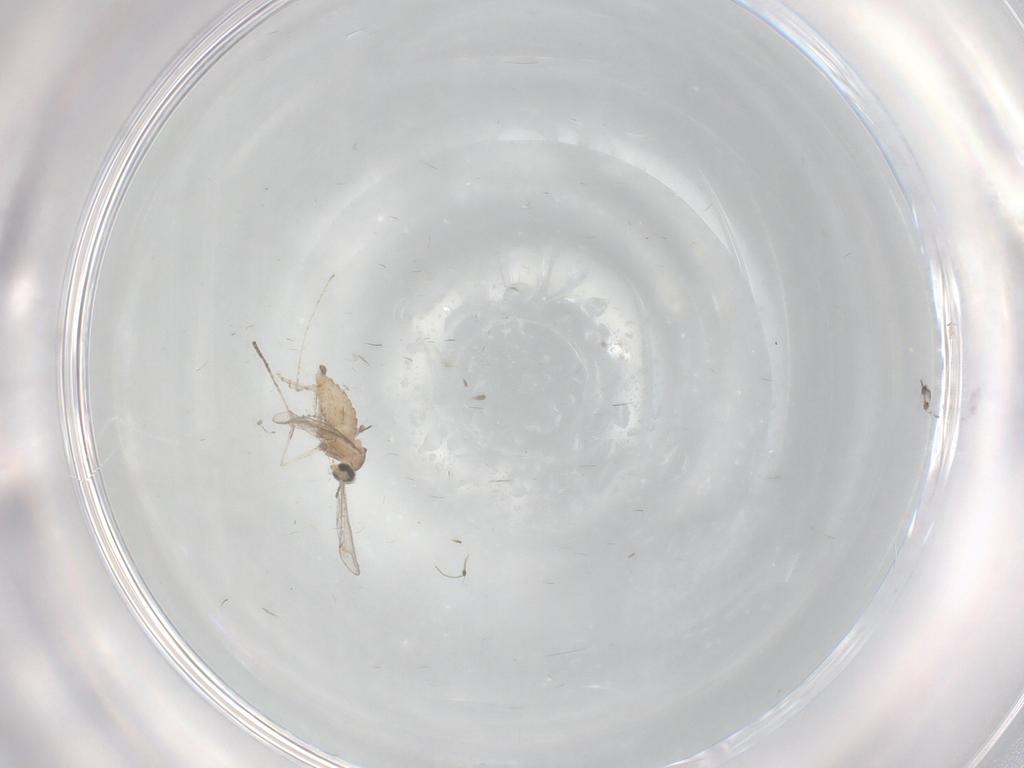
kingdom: Animalia
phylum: Arthropoda
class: Insecta
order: Diptera
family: Cecidomyiidae
